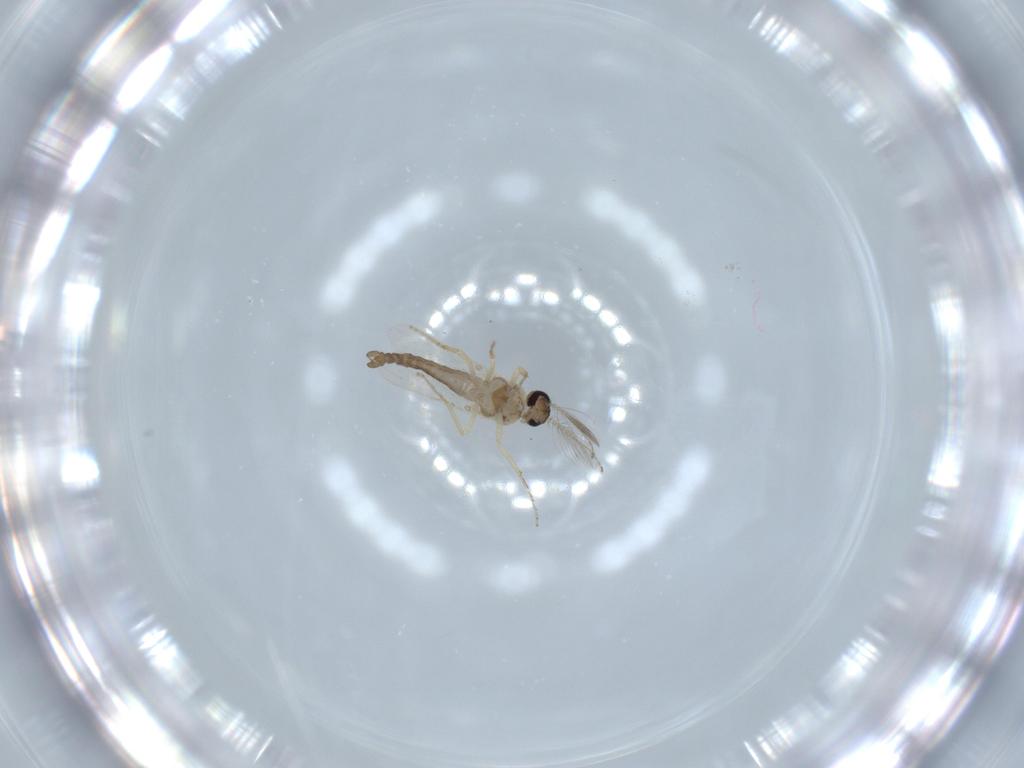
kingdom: Animalia
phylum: Arthropoda
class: Insecta
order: Diptera
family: Ceratopogonidae
